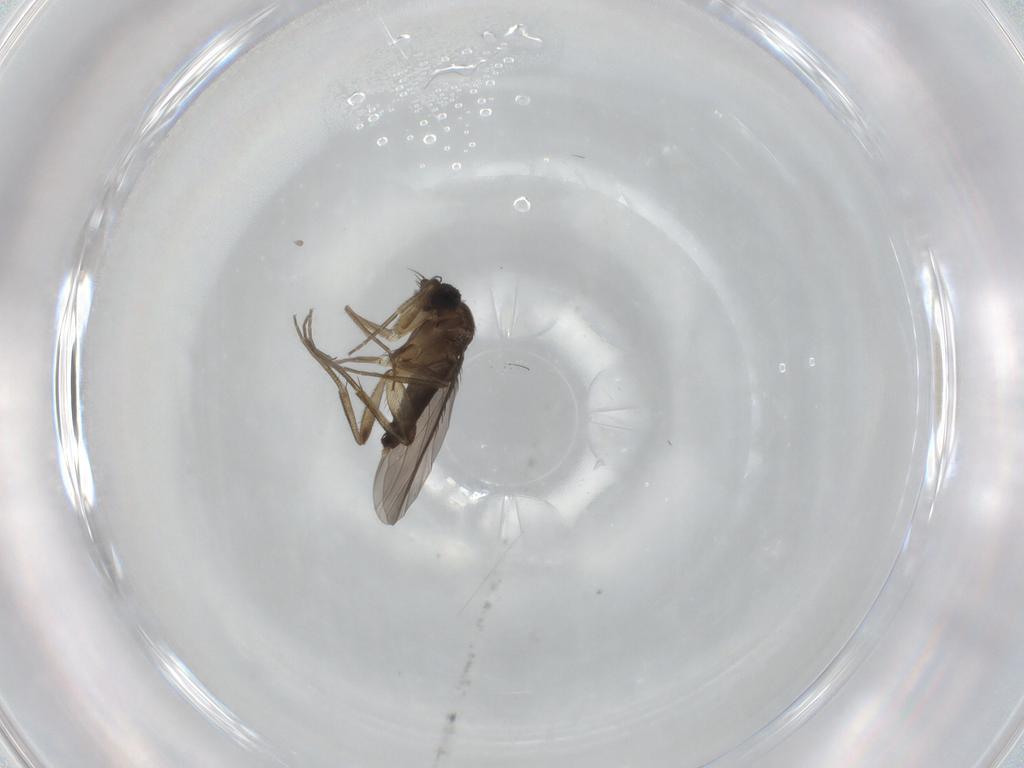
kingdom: Animalia
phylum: Arthropoda
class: Insecta
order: Diptera
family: Phoridae
